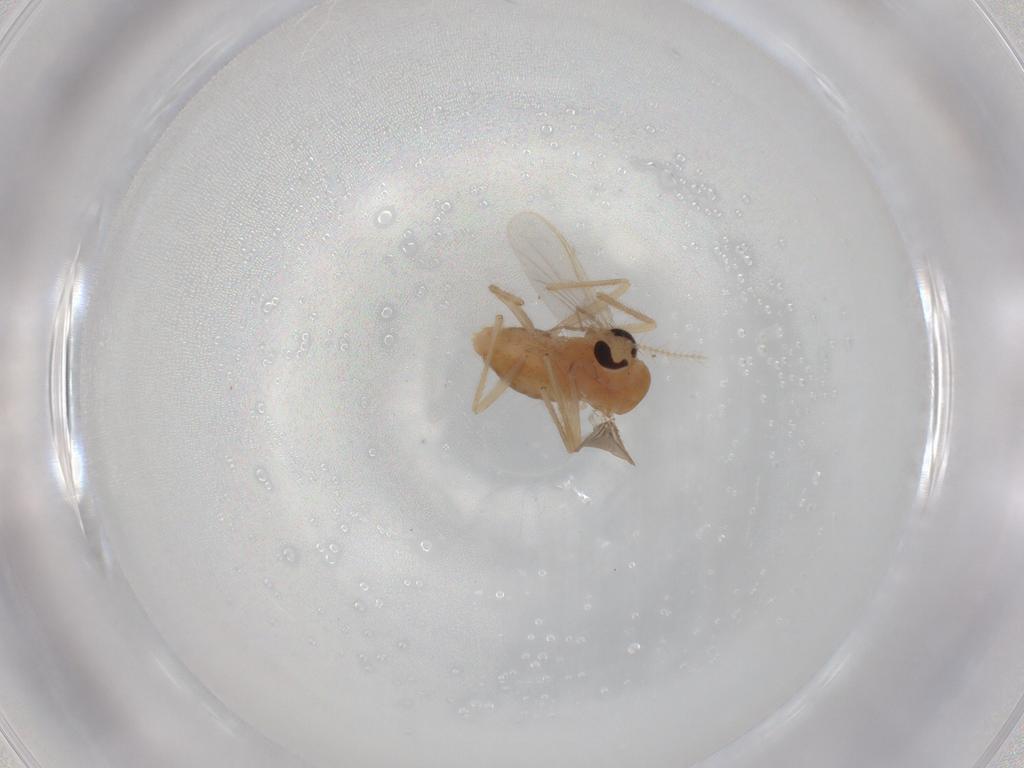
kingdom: Animalia
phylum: Arthropoda
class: Insecta
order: Diptera
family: Chironomidae
